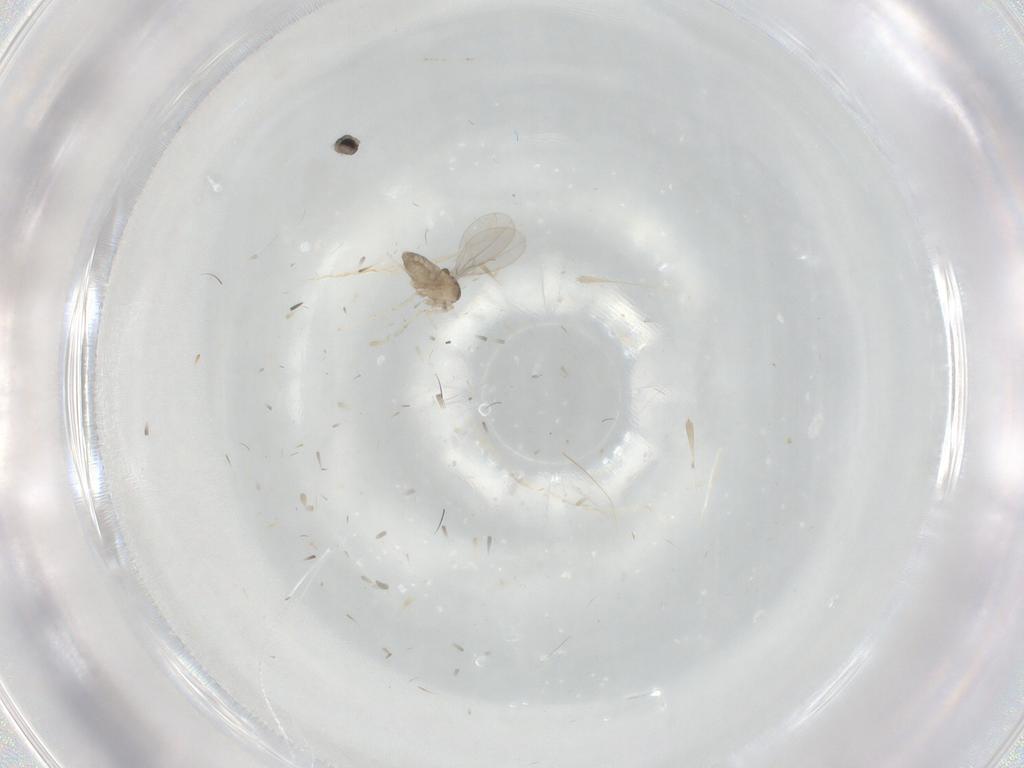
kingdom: Animalia
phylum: Arthropoda
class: Insecta
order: Diptera
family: Cecidomyiidae
